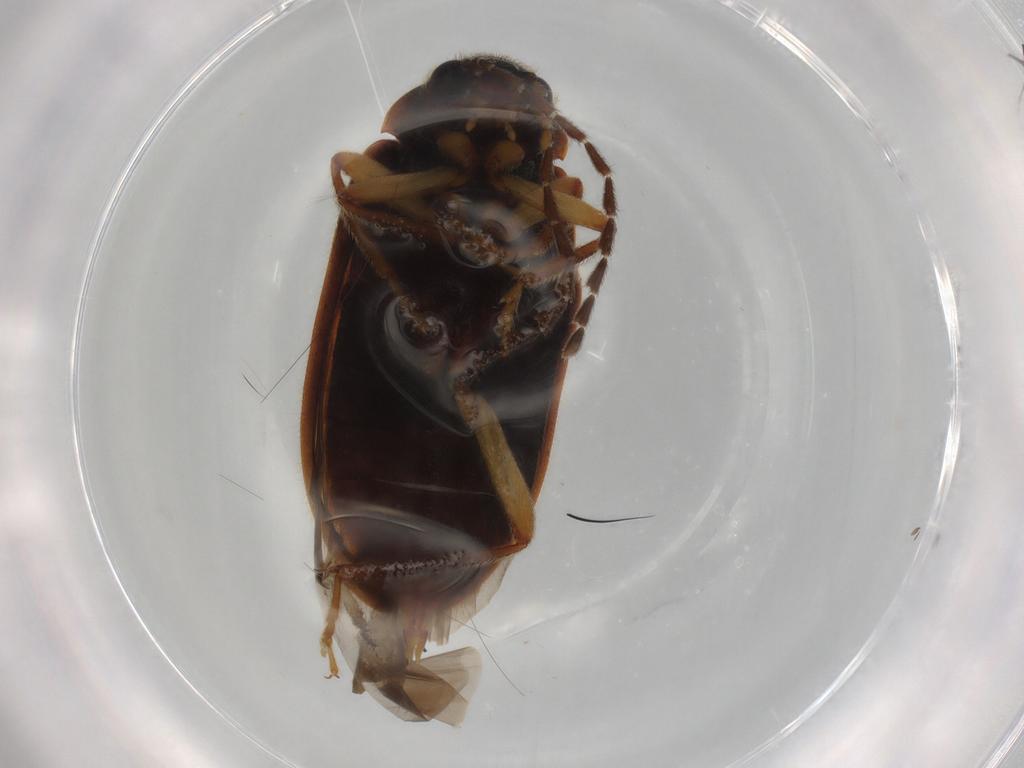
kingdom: Animalia
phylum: Arthropoda
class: Insecta
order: Coleoptera
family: Ptilodactylidae
